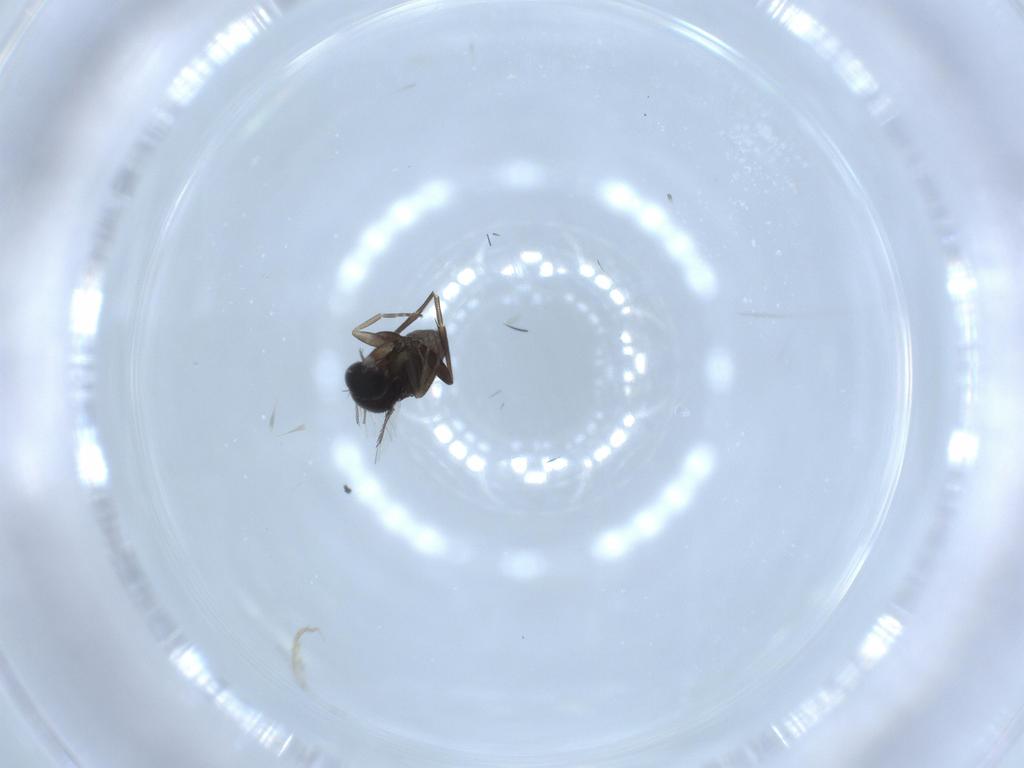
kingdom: Animalia
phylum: Arthropoda
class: Insecta
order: Diptera
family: Phoridae
